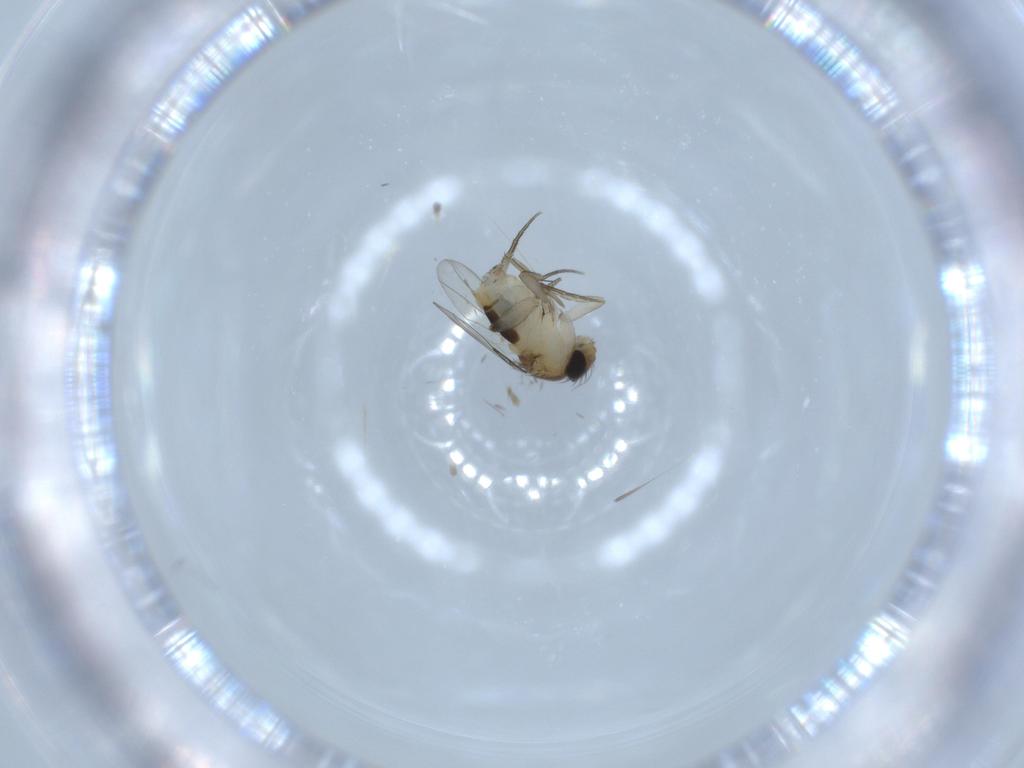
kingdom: Animalia
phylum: Arthropoda
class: Insecta
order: Diptera
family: Phoridae
